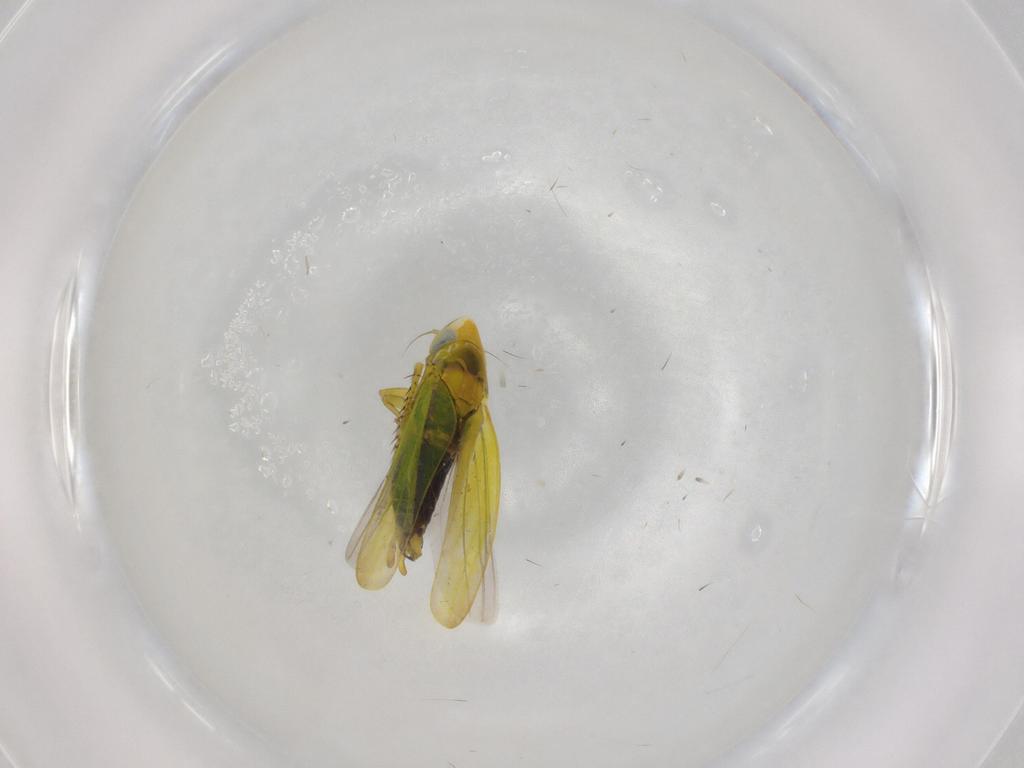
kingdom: Animalia
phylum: Arthropoda
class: Insecta
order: Hemiptera
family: Cicadellidae
